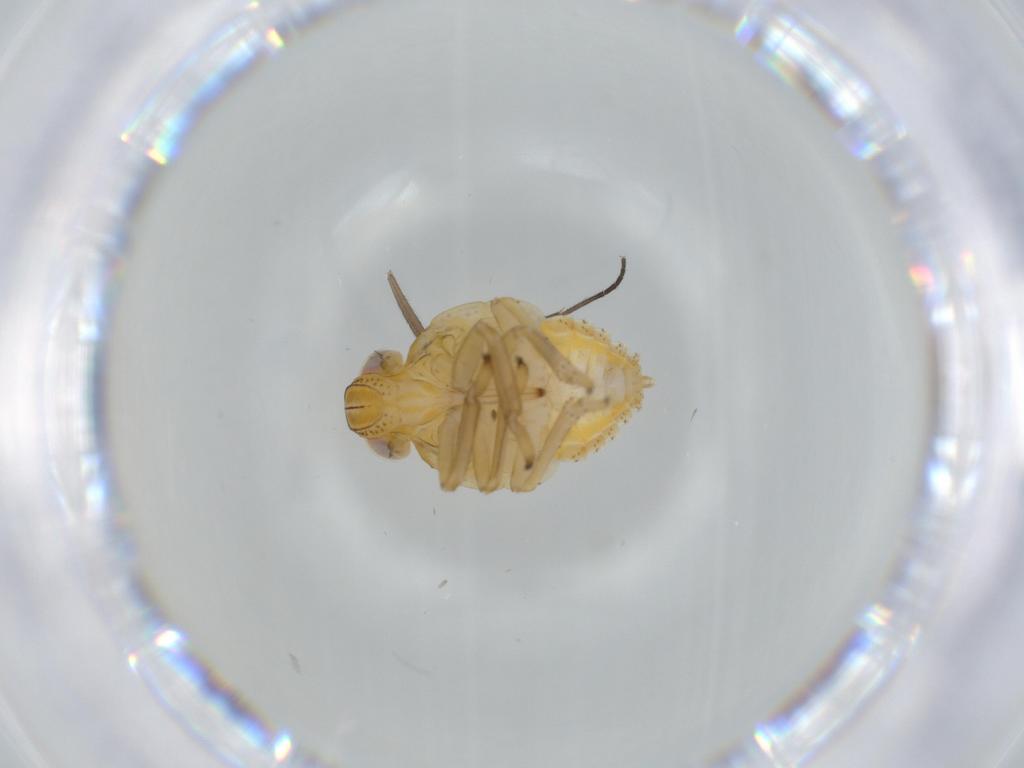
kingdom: Animalia
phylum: Arthropoda
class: Insecta
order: Hemiptera
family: Issidae
